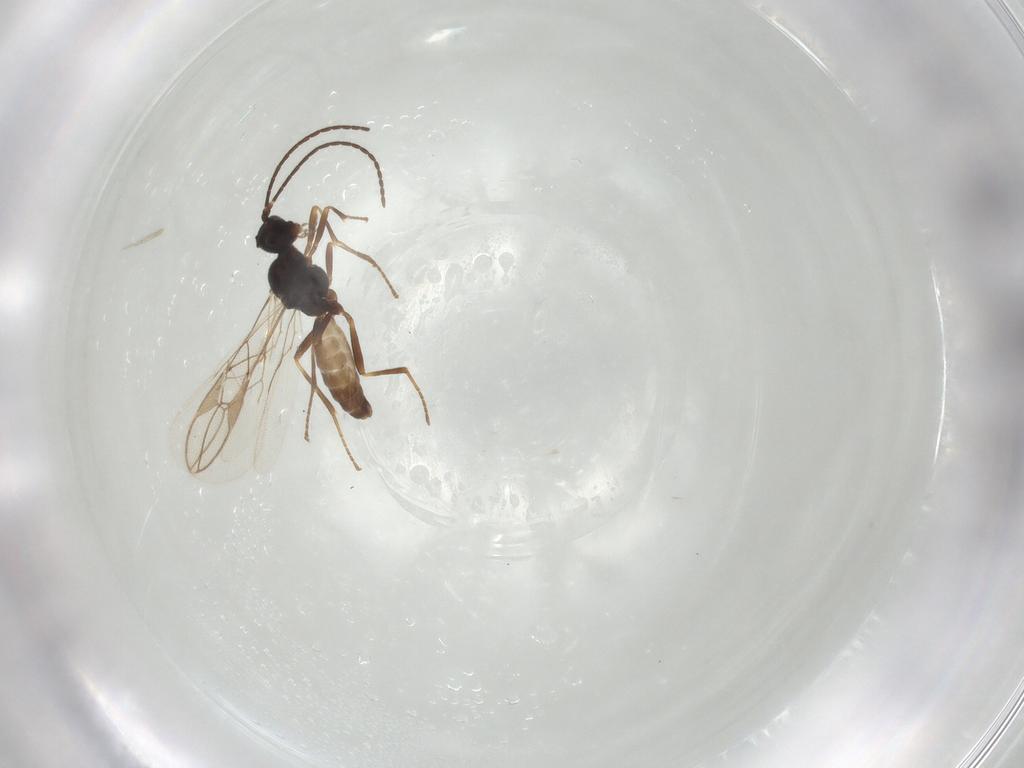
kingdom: Animalia
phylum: Arthropoda
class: Insecta
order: Hymenoptera
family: Braconidae
